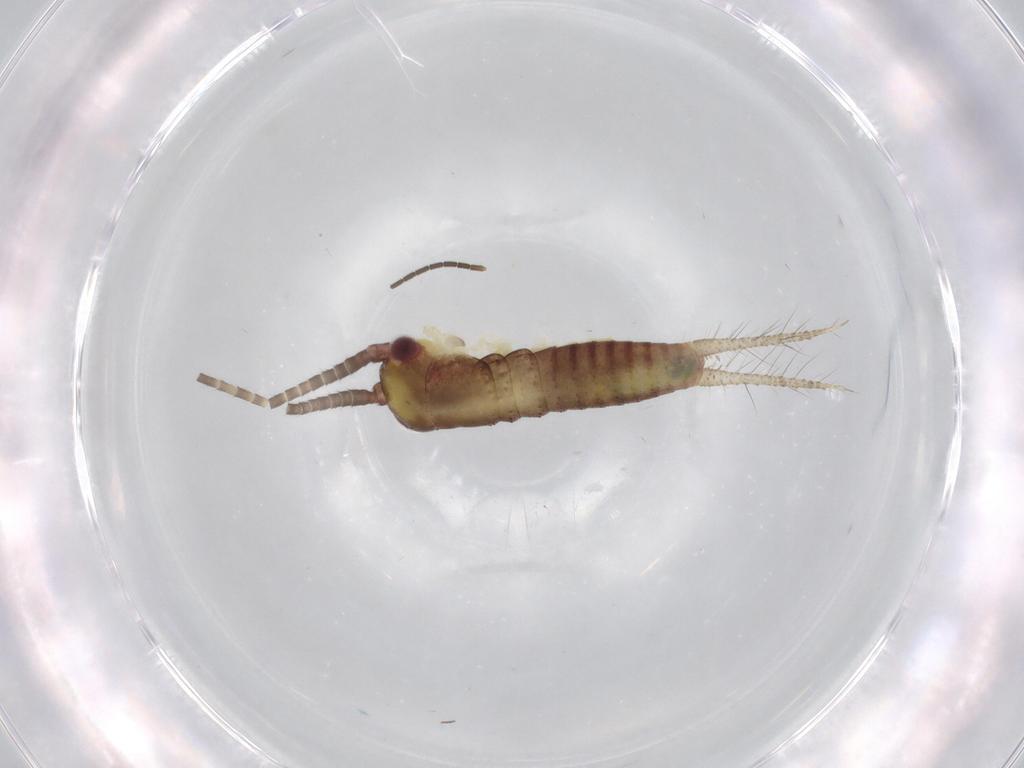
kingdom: Animalia
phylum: Arthropoda
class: Insecta
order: Orthoptera
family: Gryllidae
